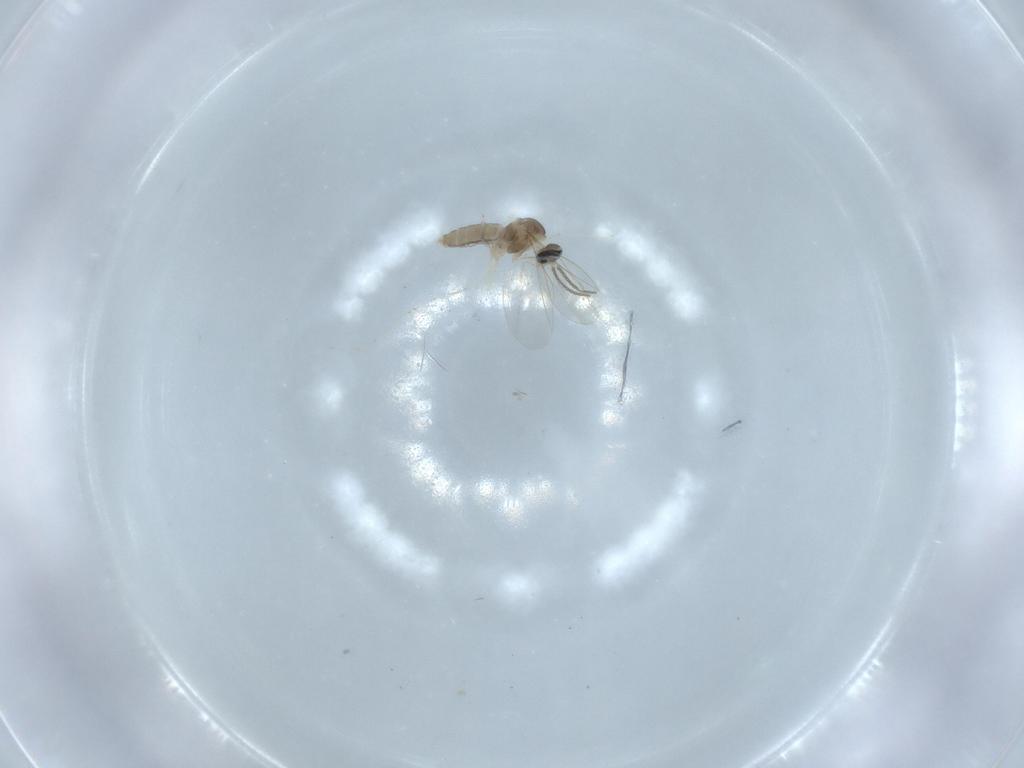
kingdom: Animalia
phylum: Arthropoda
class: Insecta
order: Diptera
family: Cecidomyiidae
